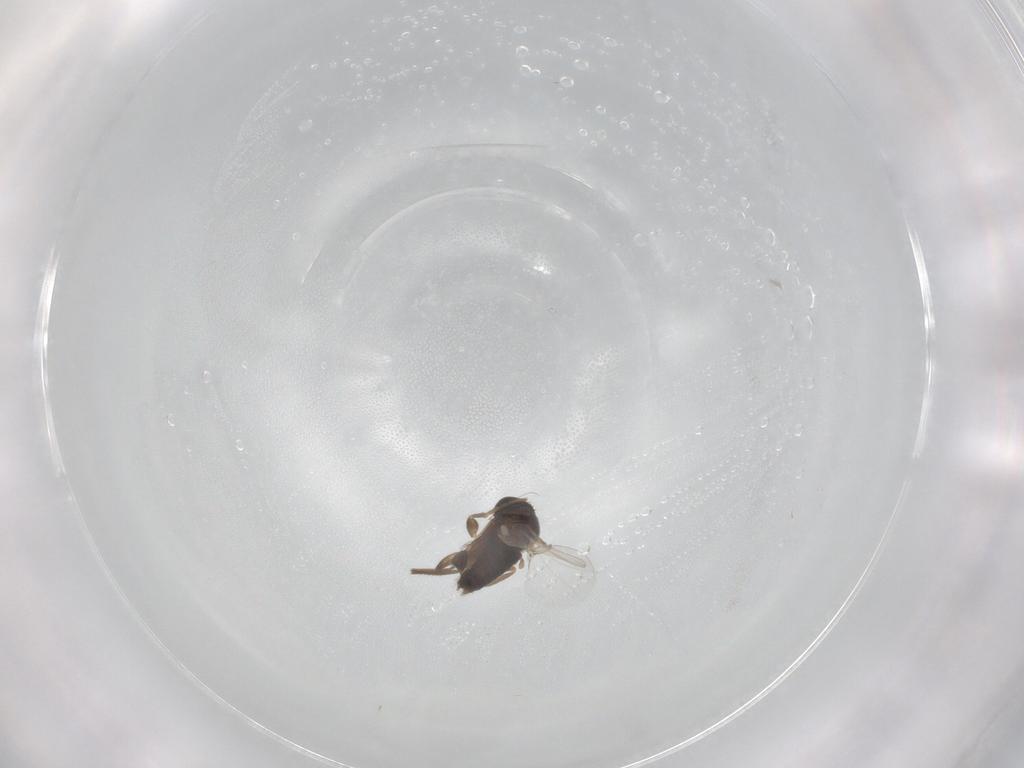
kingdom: Animalia
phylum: Arthropoda
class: Insecta
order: Diptera
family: Phoridae
